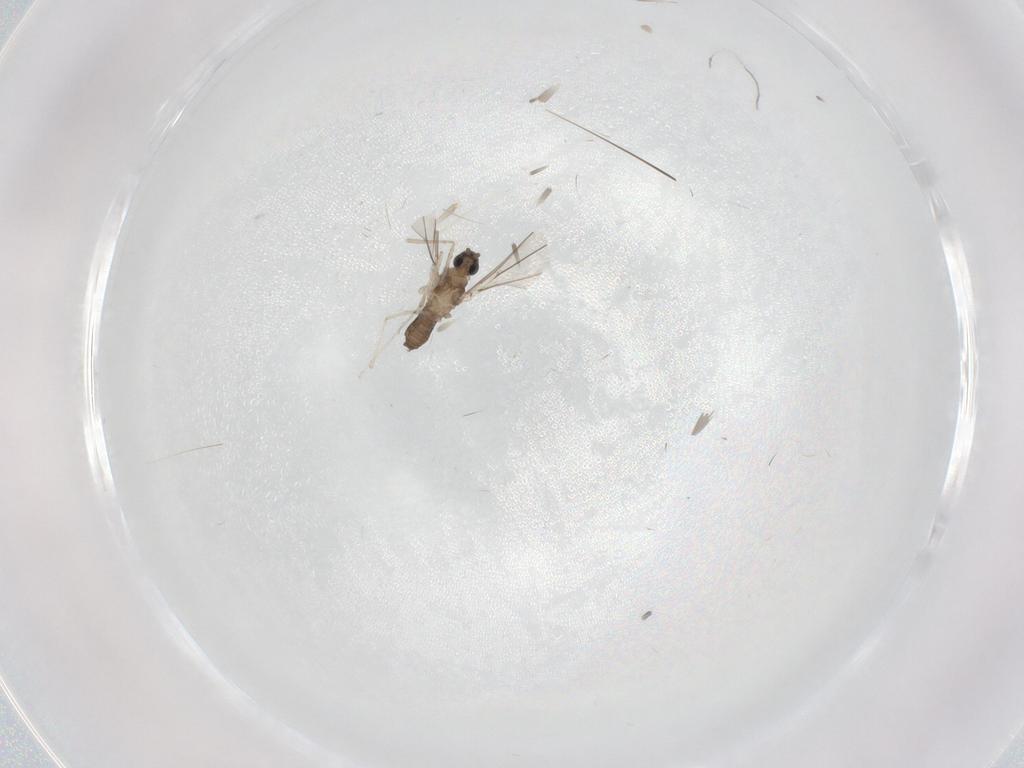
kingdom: Animalia
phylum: Arthropoda
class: Insecta
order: Diptera
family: Cecidomyiidae
